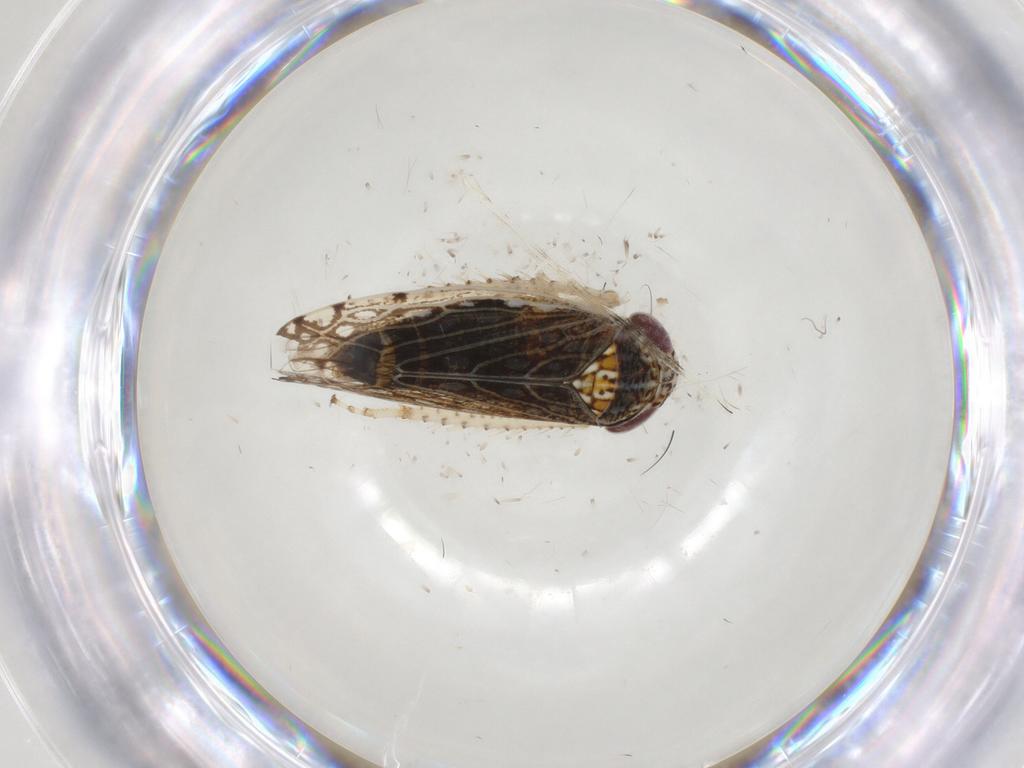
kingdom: Animalia
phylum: Arthropoda
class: Insecta
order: Hemiptera
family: Cicadellidae
